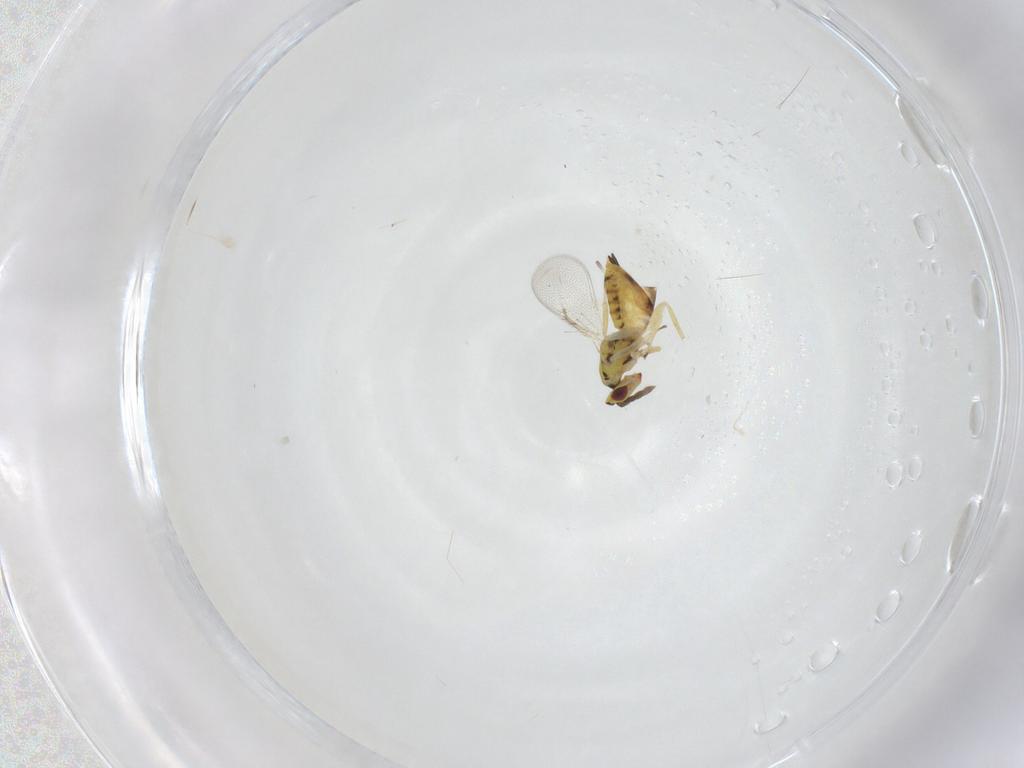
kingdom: Animalia
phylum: Arthropoda
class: Insecta
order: Hymenoptera
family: Eulophidae
